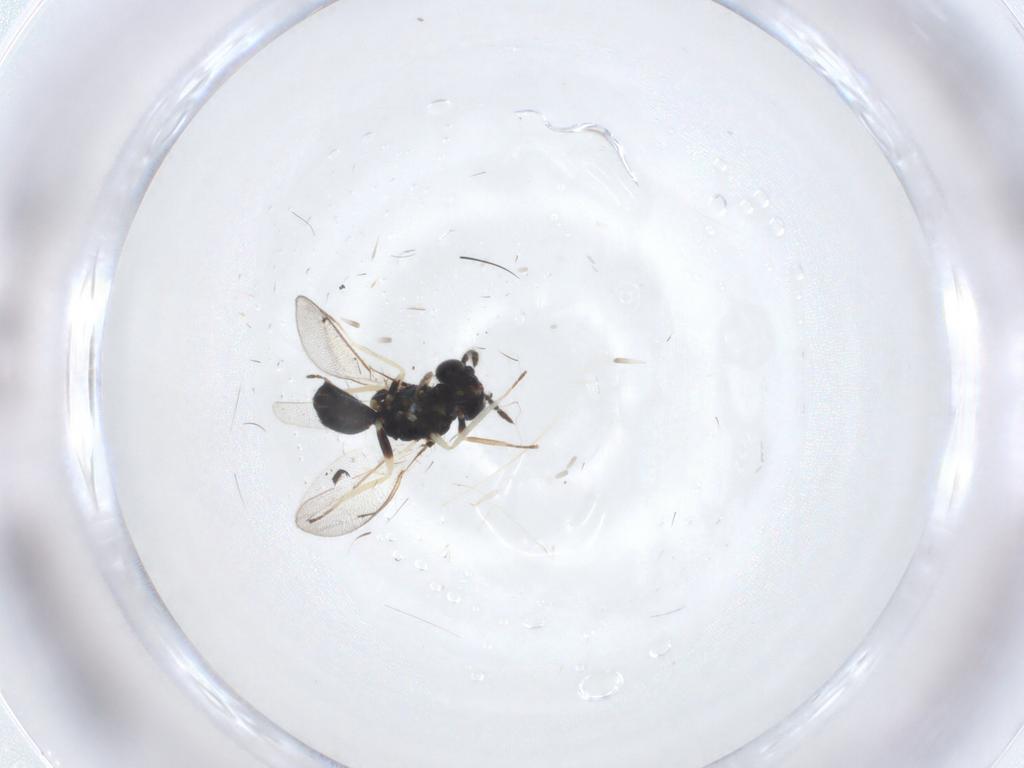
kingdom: Animalia
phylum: Arthropoda
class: Insecta
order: Hymenoptera
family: Eulophidae
